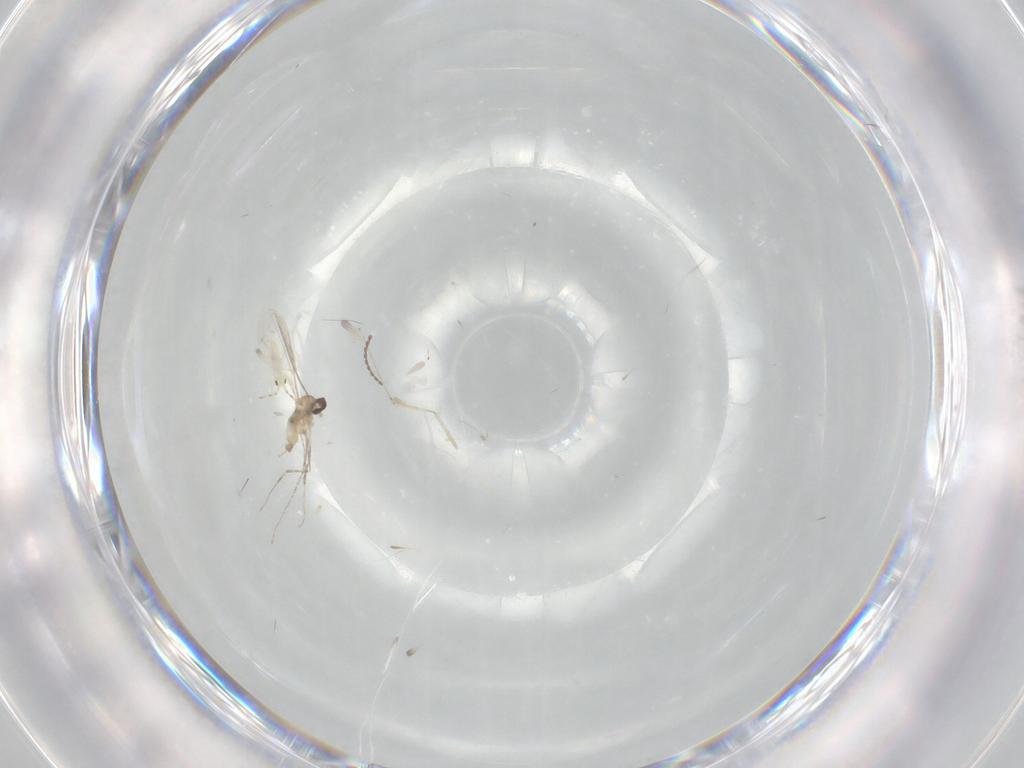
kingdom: Animalia
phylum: Arthropoda
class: Insecta
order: Diptera
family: Cecidomyiidae
